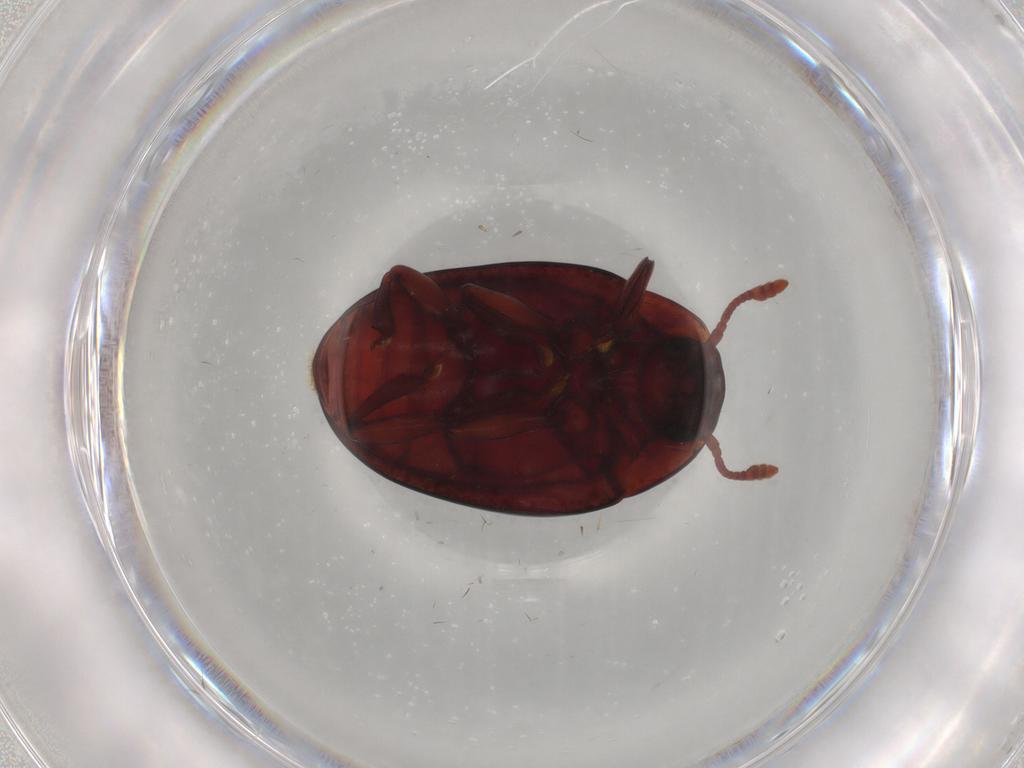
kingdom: Animalia
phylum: Arthropoda
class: Insecta
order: Coleoptera
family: Zopheridae
